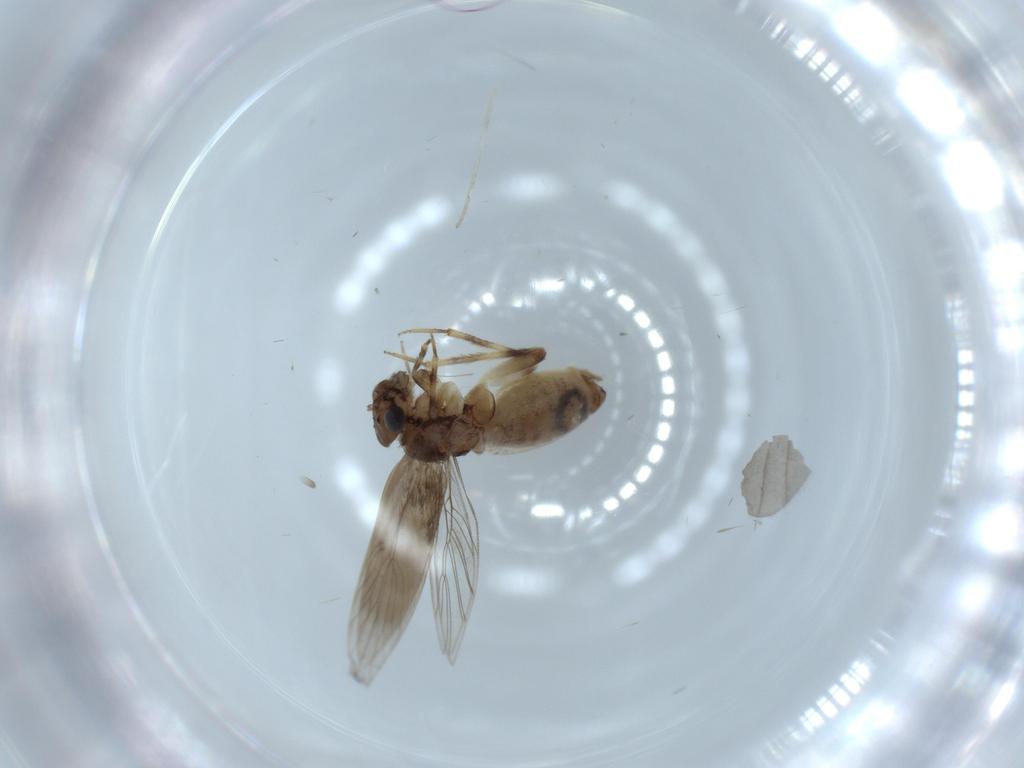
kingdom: Animalia
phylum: Arthropoda
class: Insecta
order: Psocodea
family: Lepidopsocidae
